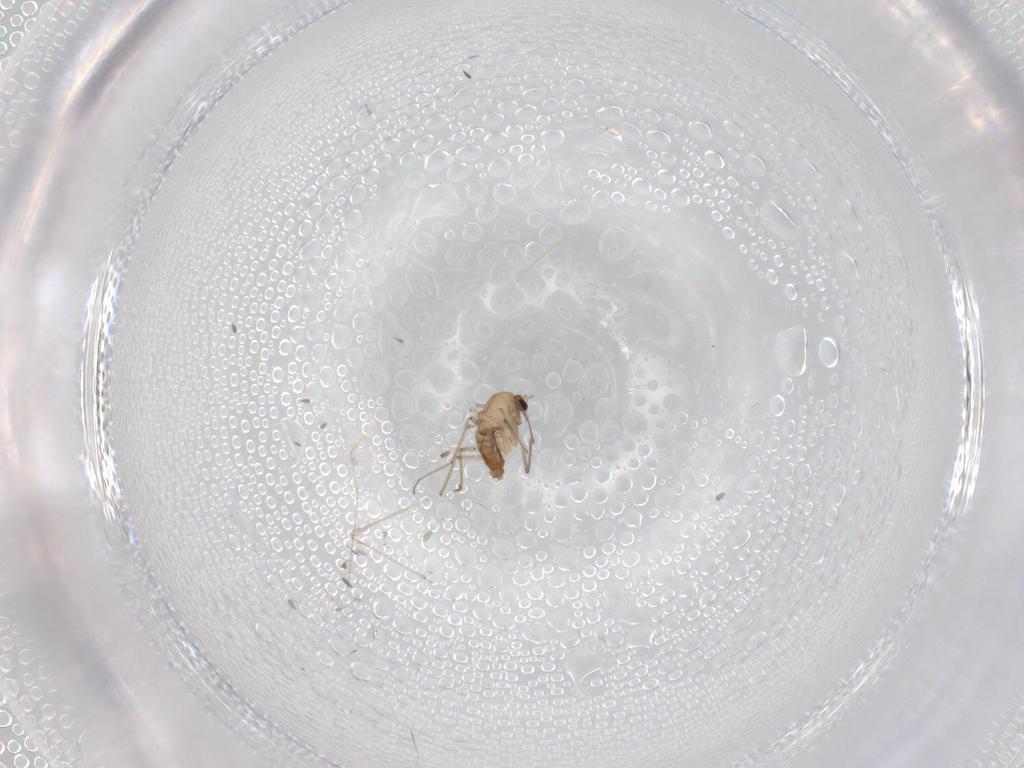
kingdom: Animalia
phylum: Arthropoda
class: Insecta
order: Diptera
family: Chironomidae
